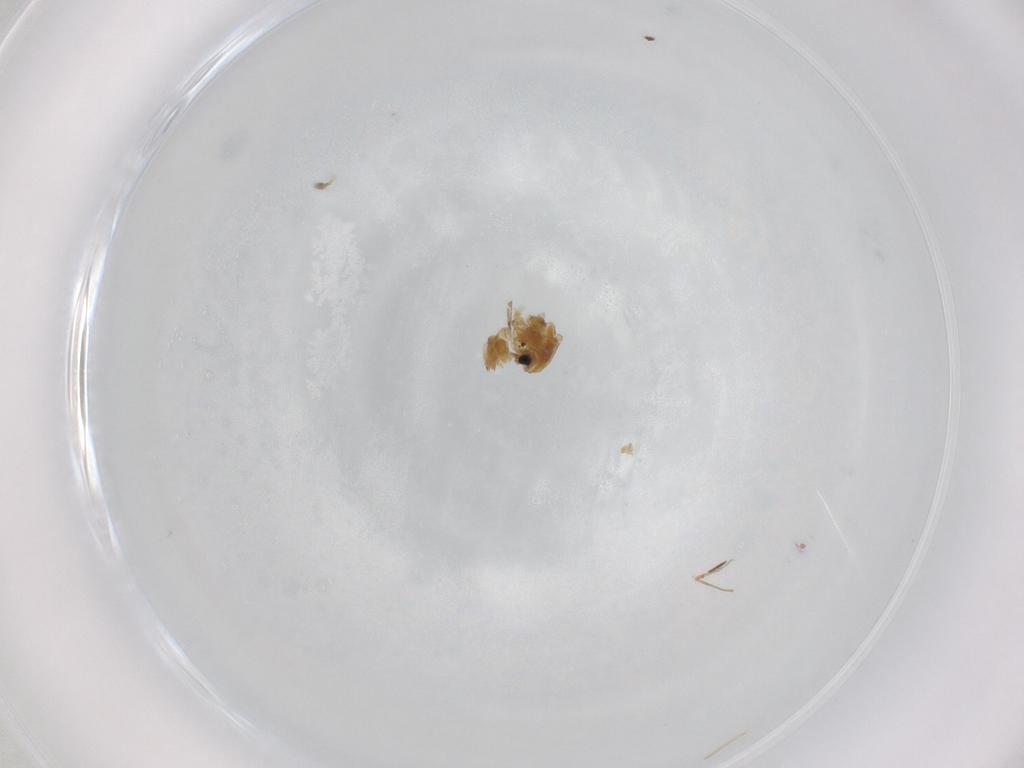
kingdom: Animalia
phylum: Arthropoda
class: Insecta
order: Diptera
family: Chironomidae
